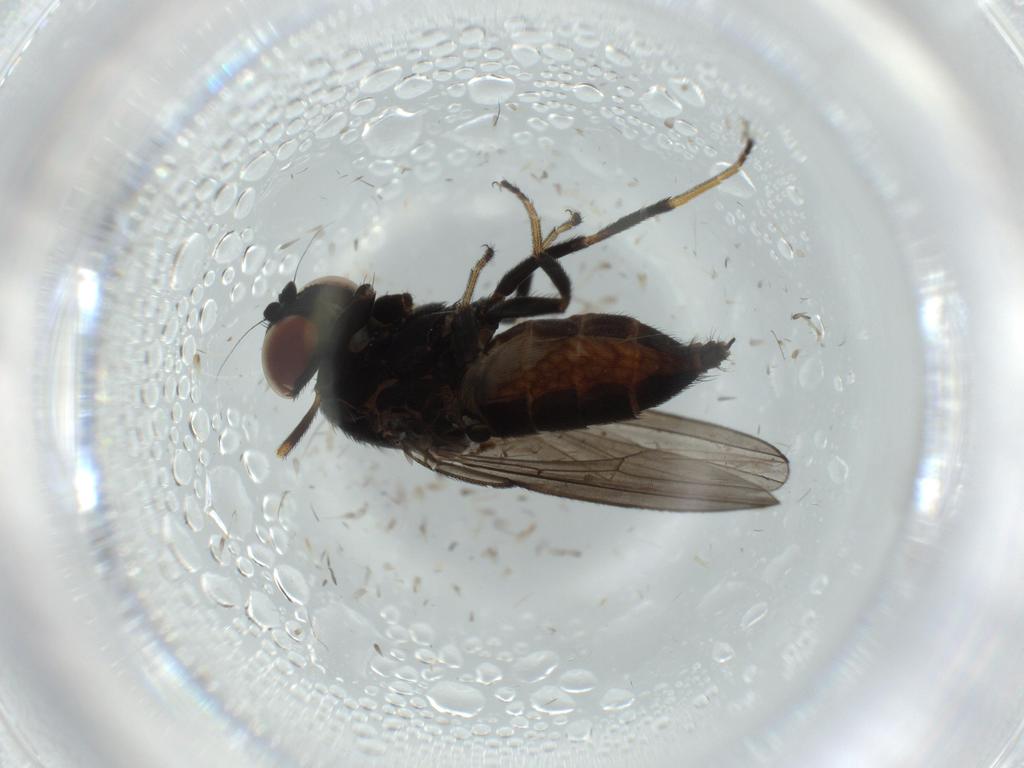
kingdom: Animalia
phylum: Arthropoda
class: Insecta
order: Diptera
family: Milichiidae
